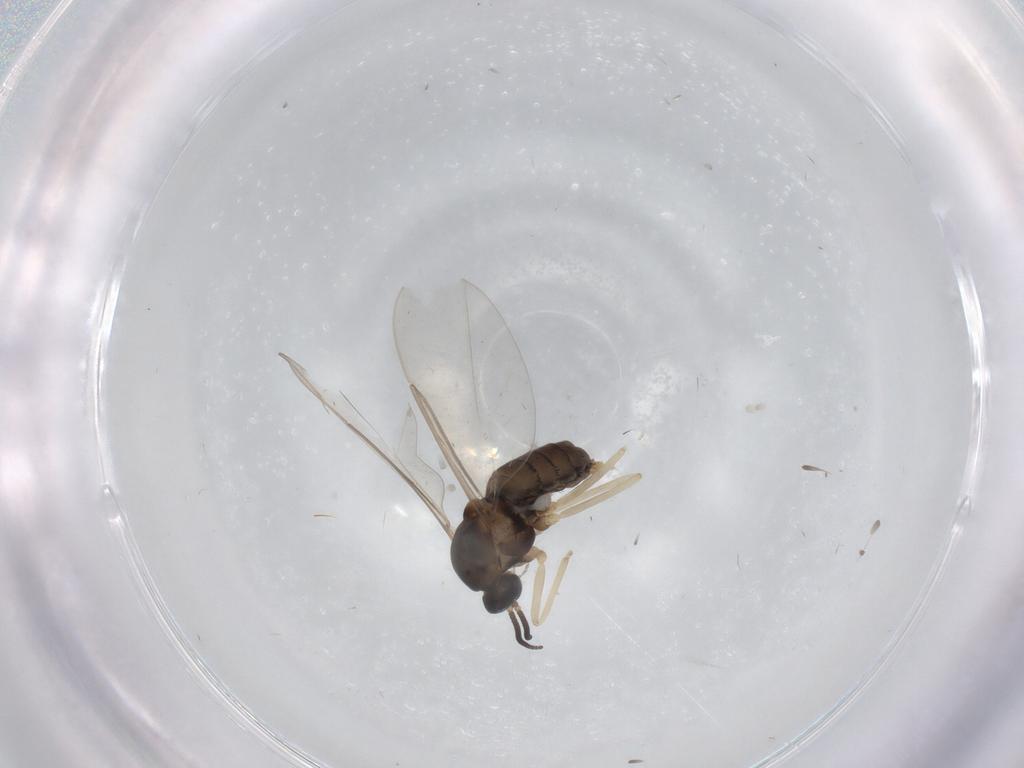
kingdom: Animalia
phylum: Arthropoda
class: Insecta
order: Diptera
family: Cecidomyiidae
